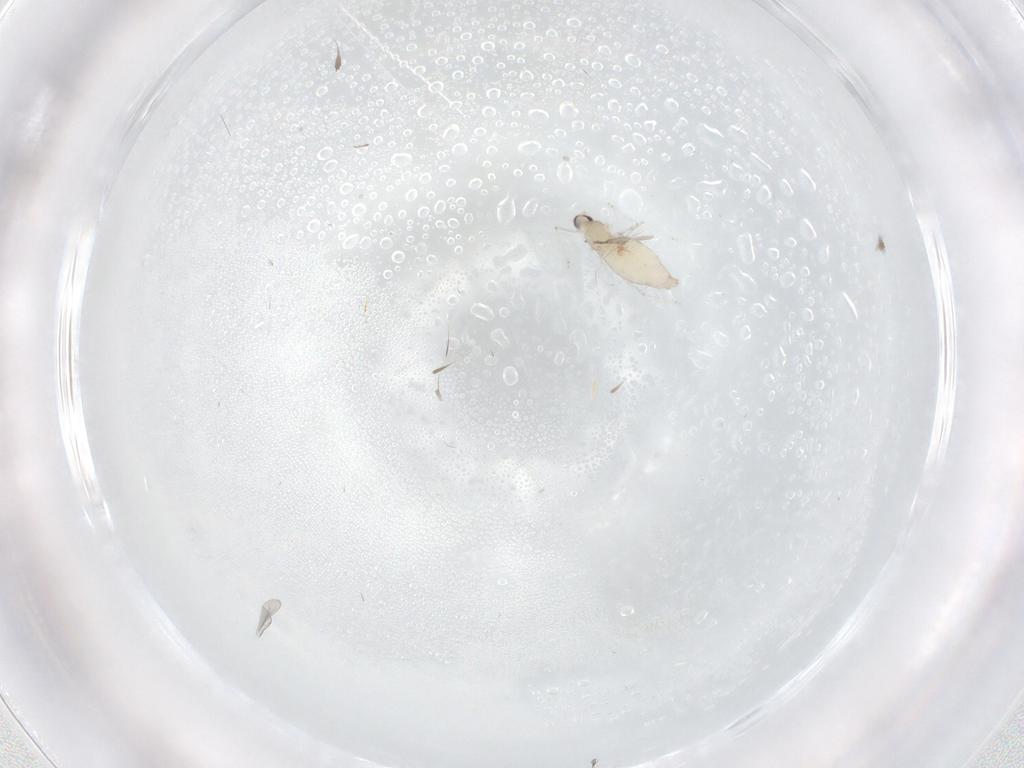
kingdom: Animalia
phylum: Arthropoda
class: Insecta
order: Diptera
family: Cecidomyiidae
